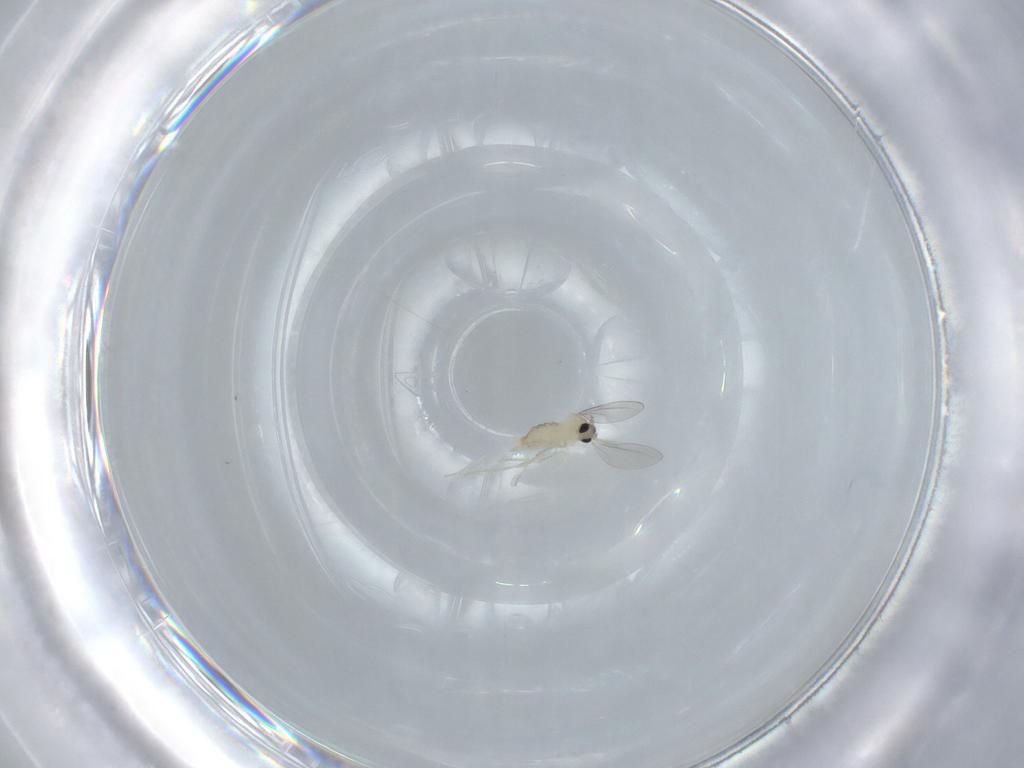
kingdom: Animalia
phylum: Arthropoda
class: Insecta
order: Diptera
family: Cecidomyiidae
